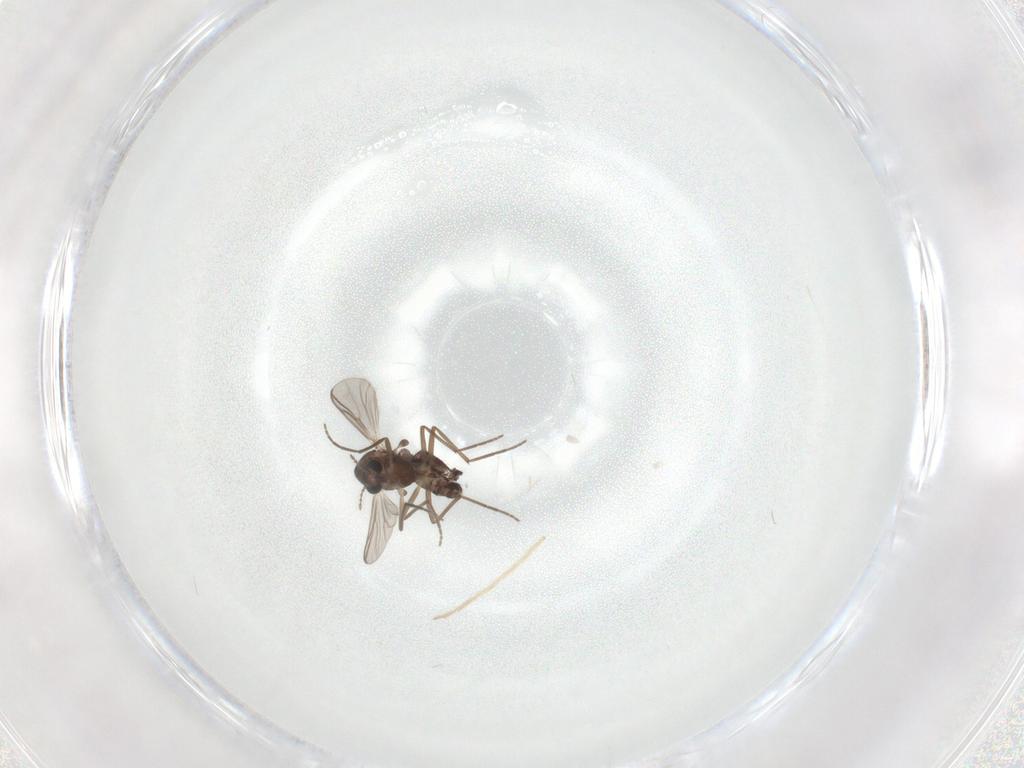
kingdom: Animalia
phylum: Arthropoda
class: Insecta
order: Diptera
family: Chironomidae
